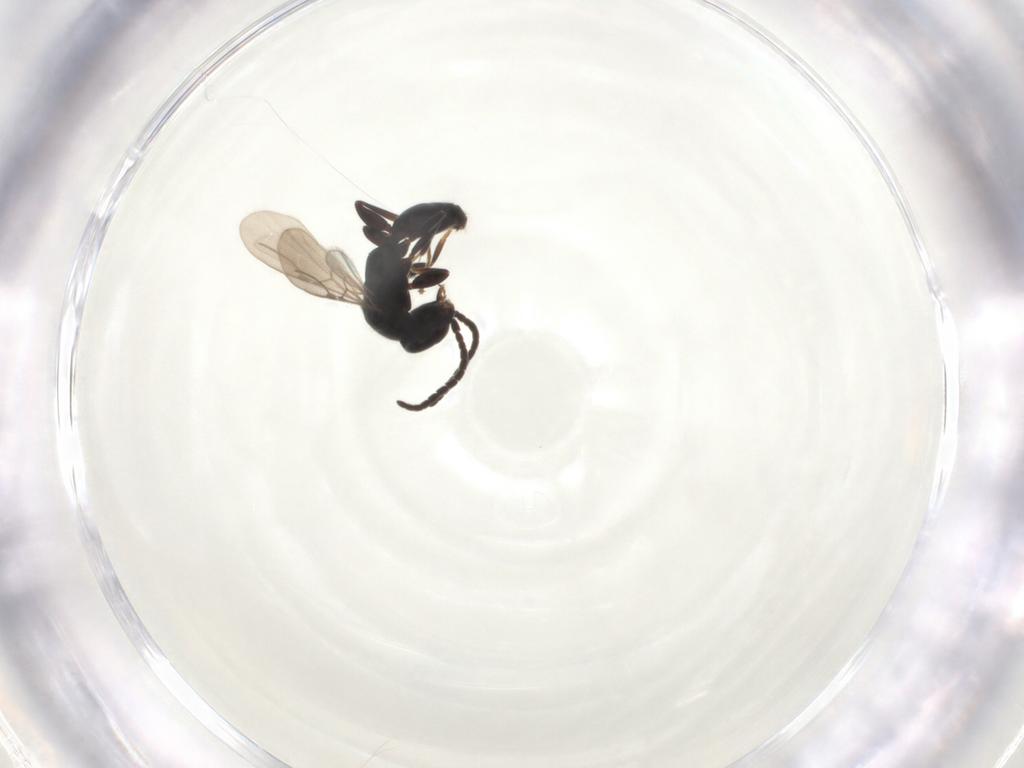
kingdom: Animalia
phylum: Arthropoda
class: Insecta
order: Hymenoptera
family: Bethylidae
